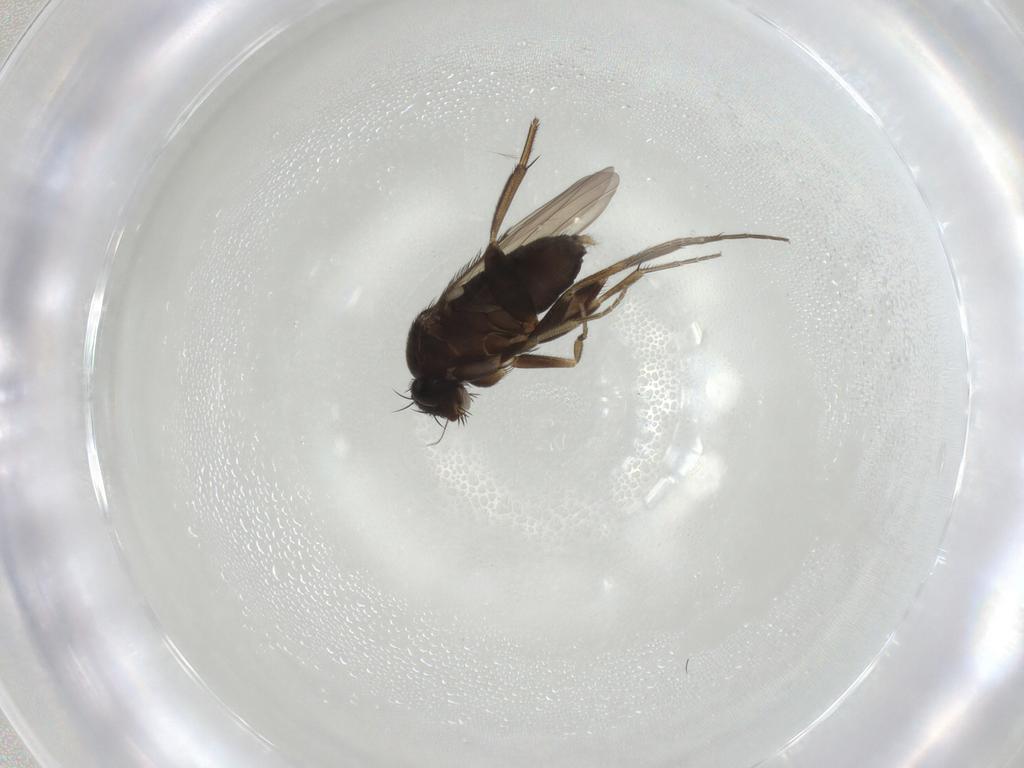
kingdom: Animalia
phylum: Arthropoda
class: Insecta
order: Diptera
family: Phoridae
